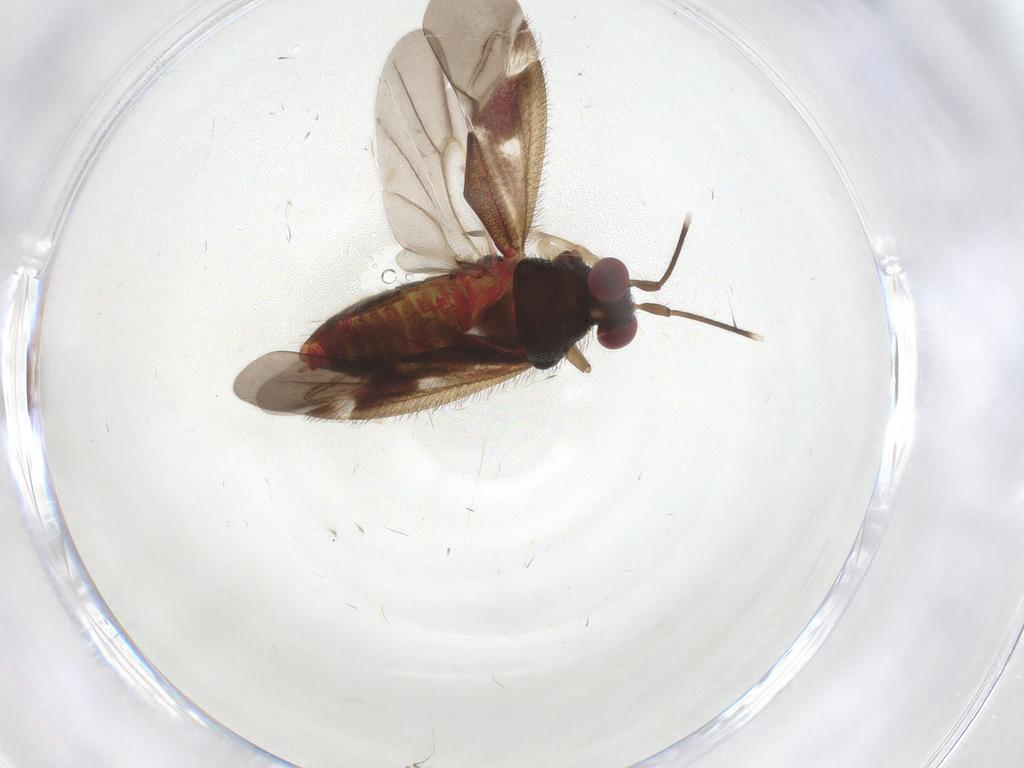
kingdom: Animalia
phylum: Arthropoda
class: Insecta
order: Hemiptera
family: Miridae
